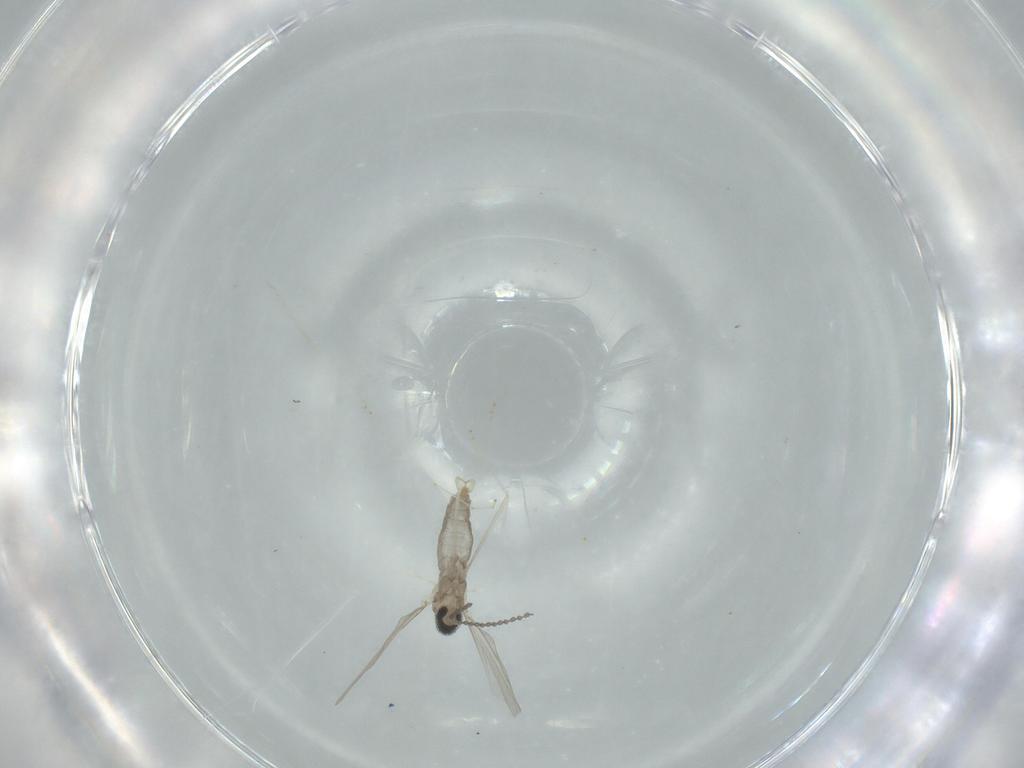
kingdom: Animalia
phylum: Arthropoda
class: Insecta
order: Diptera
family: Cecidomyiidae
